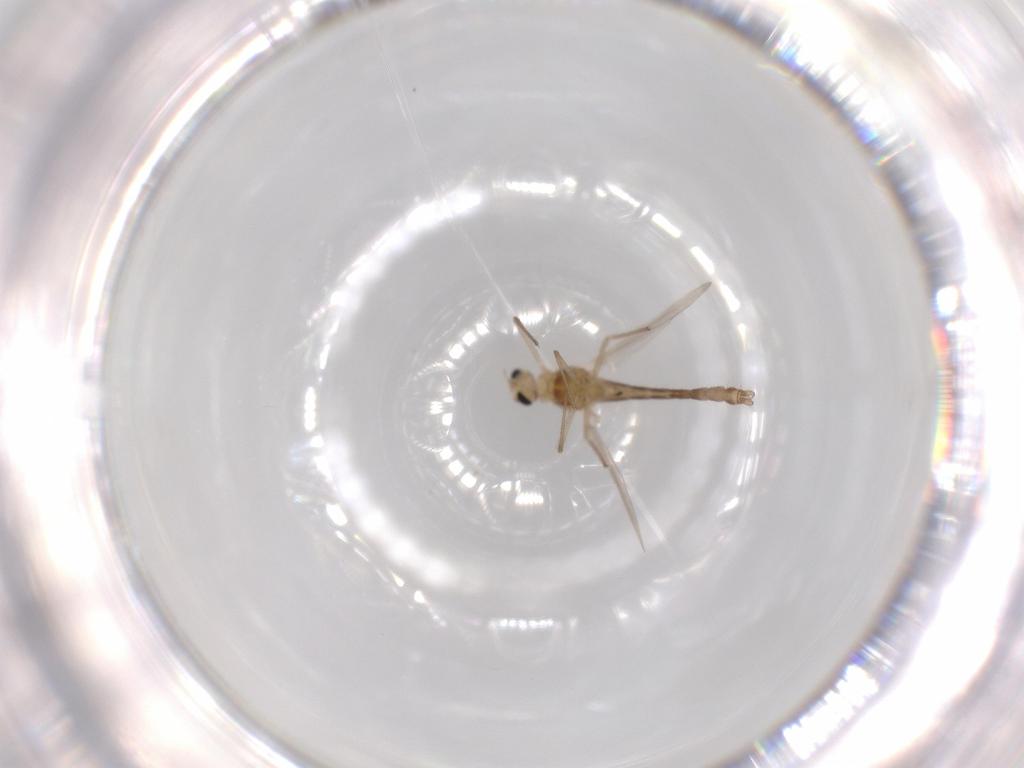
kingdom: Animalia
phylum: Arthropoda
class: Insecta
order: Diptera
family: Chironomidae
